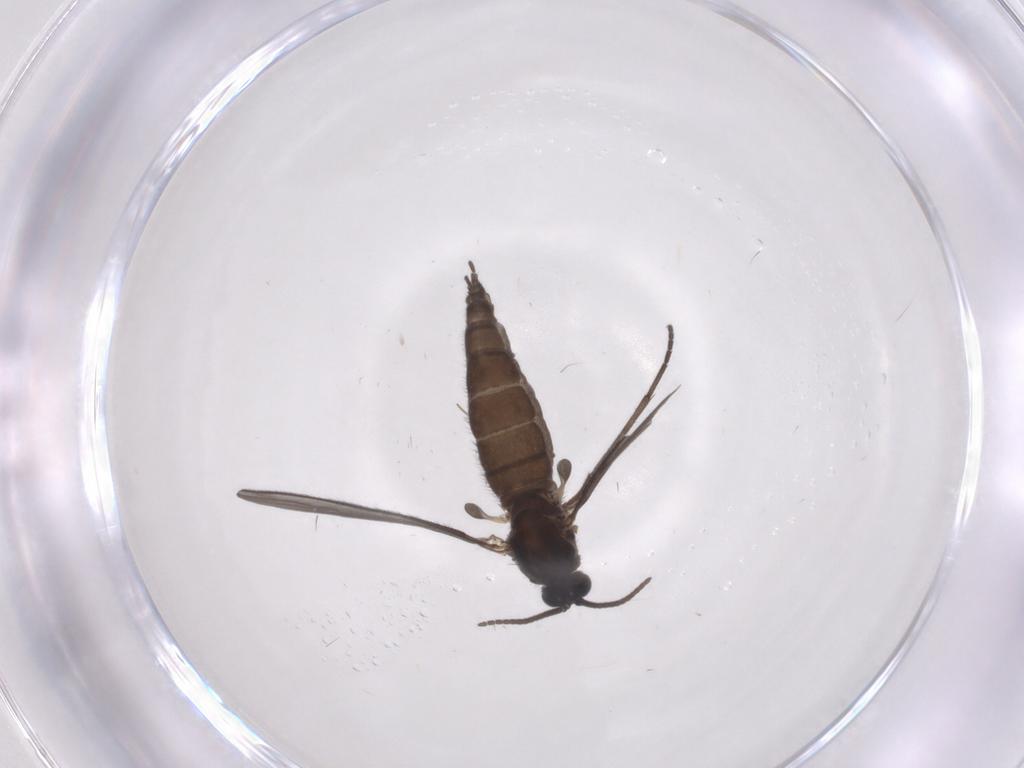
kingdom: Animalia
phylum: Arthropoda
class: Insecta
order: Diptera
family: Sciaridae
